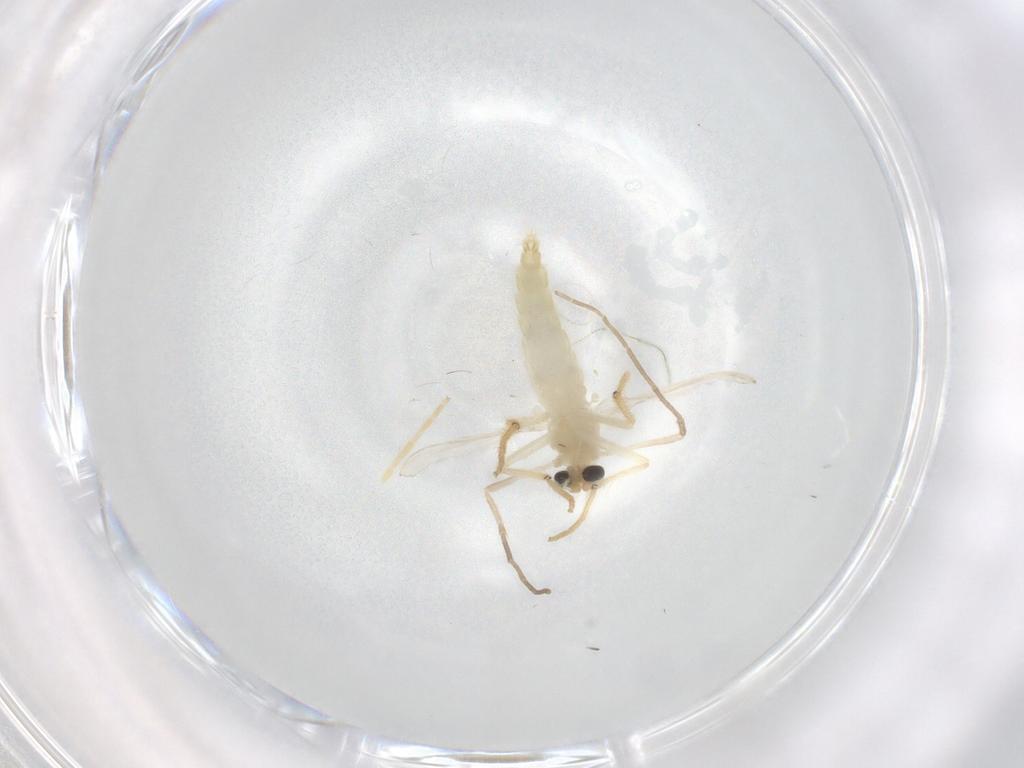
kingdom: Animalia
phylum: Arthropoda
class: Insecta
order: Diptera
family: Chironomidae
